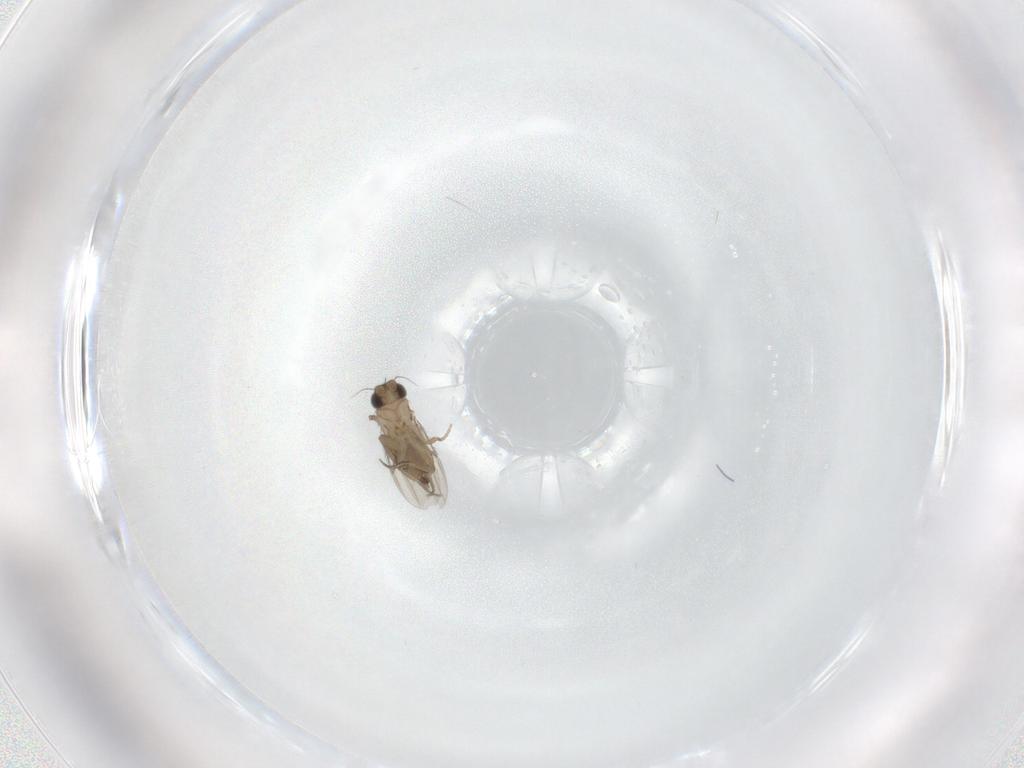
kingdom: Animalia
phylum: Arthropoda
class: Insecta
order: Diptera
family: Phoridae
